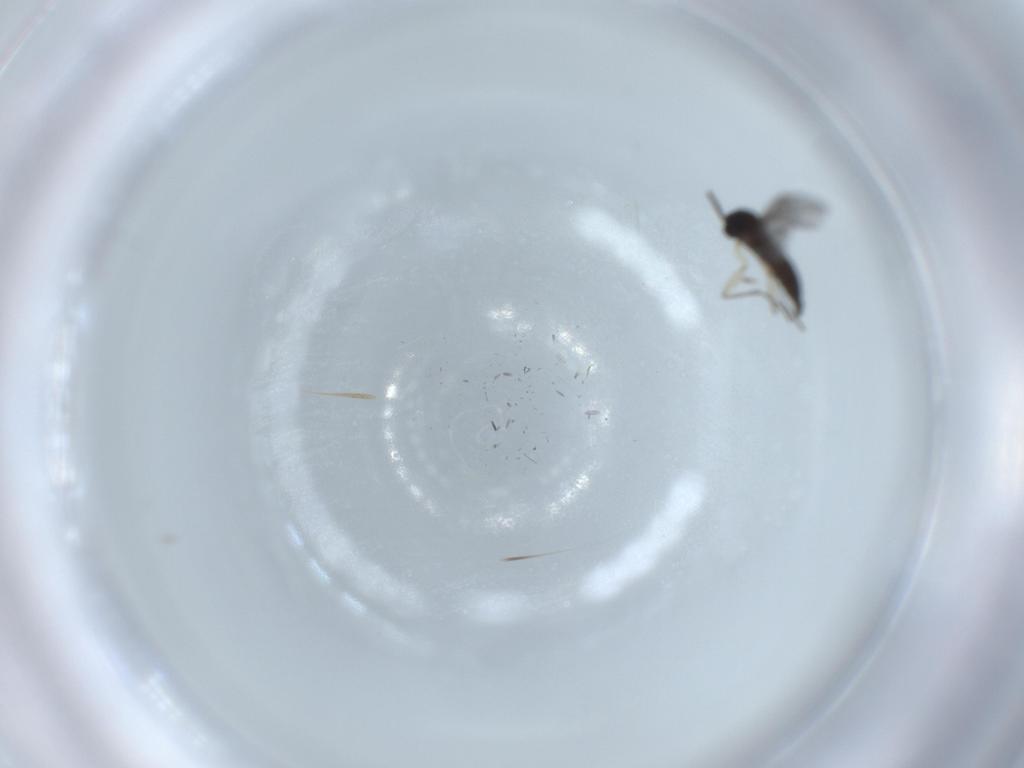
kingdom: Animalia
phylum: Arthropoda
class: Insecta
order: Diptera
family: Sciaridae
